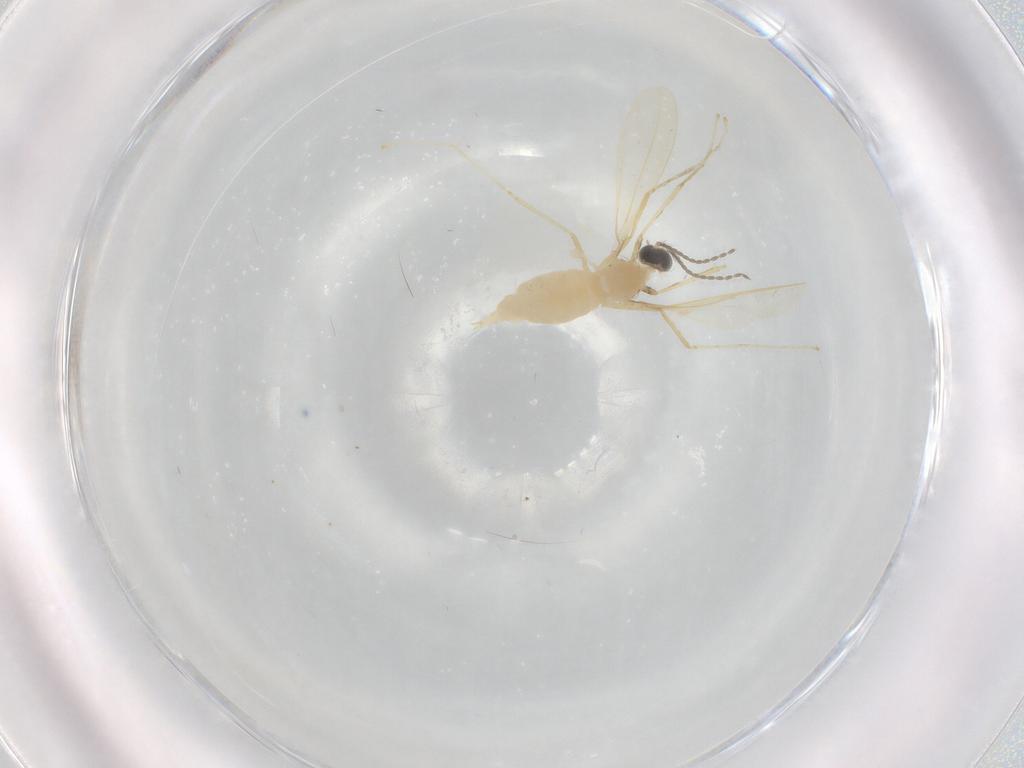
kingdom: Animalia
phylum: Arthropoda
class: Insecta
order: Diptera
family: Cecidomyiidae
